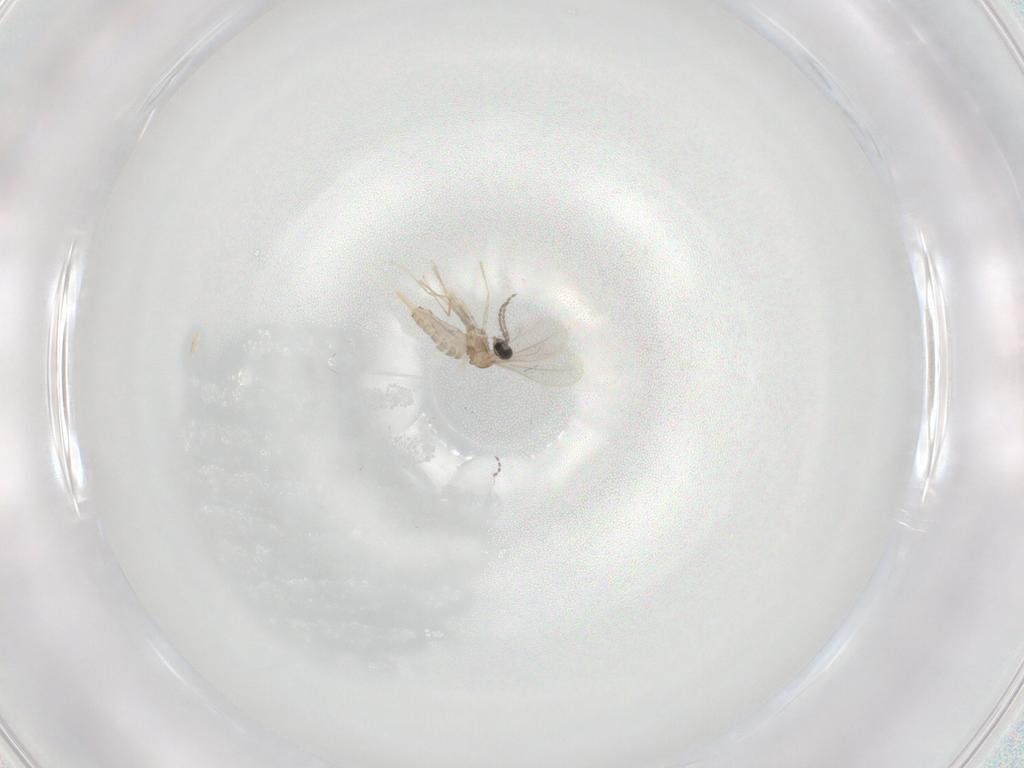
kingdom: Animalia
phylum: Arthropoda
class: Insecta
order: Diptera
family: Cecidomyiidae
